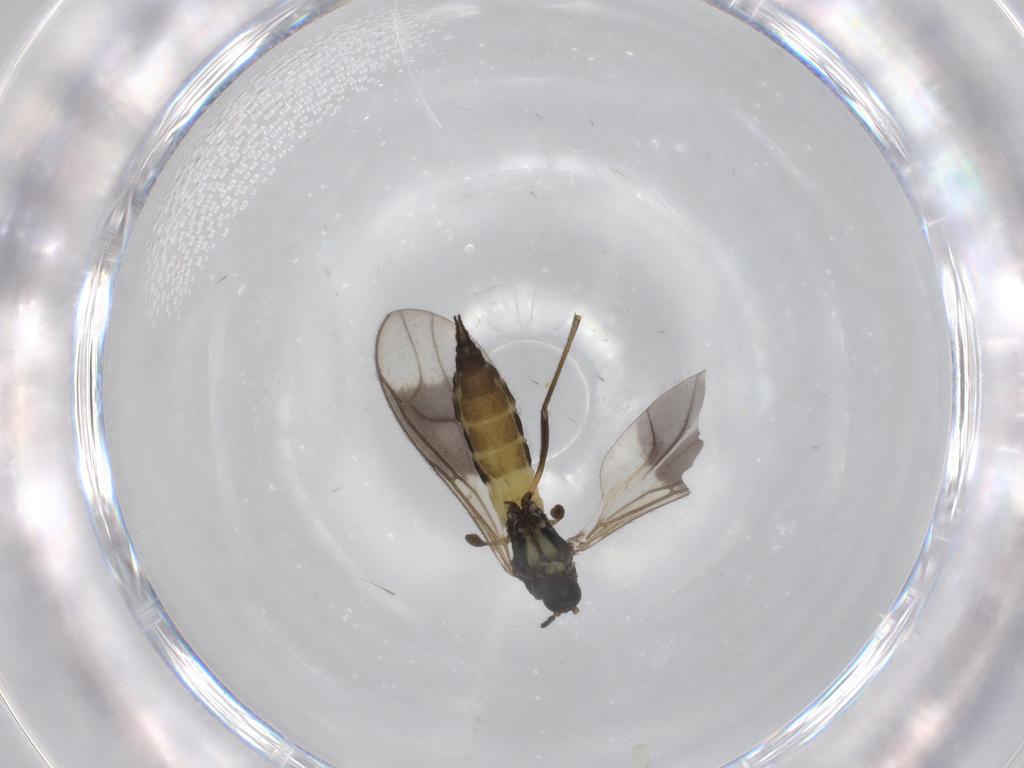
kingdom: Animalia
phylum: Arthropoda
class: Insecta
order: Diptera
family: Sciaridae
